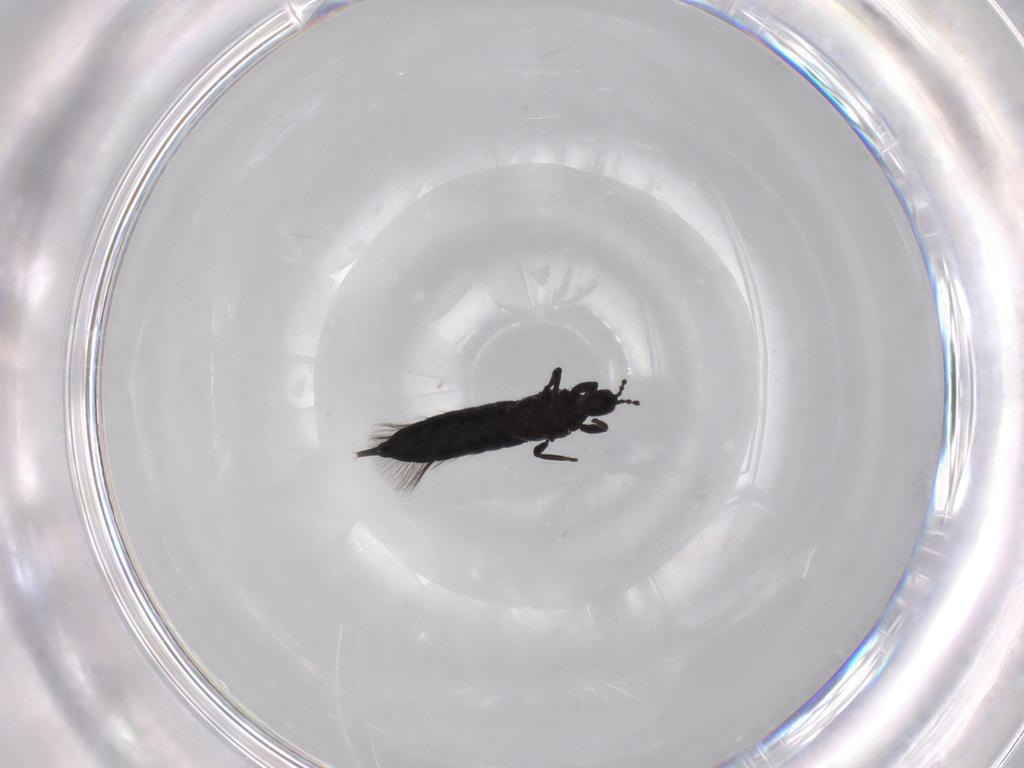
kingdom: Animalia
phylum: Arthropoda
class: Insecta
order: Thysanoptera
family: Phlaeothripidae
